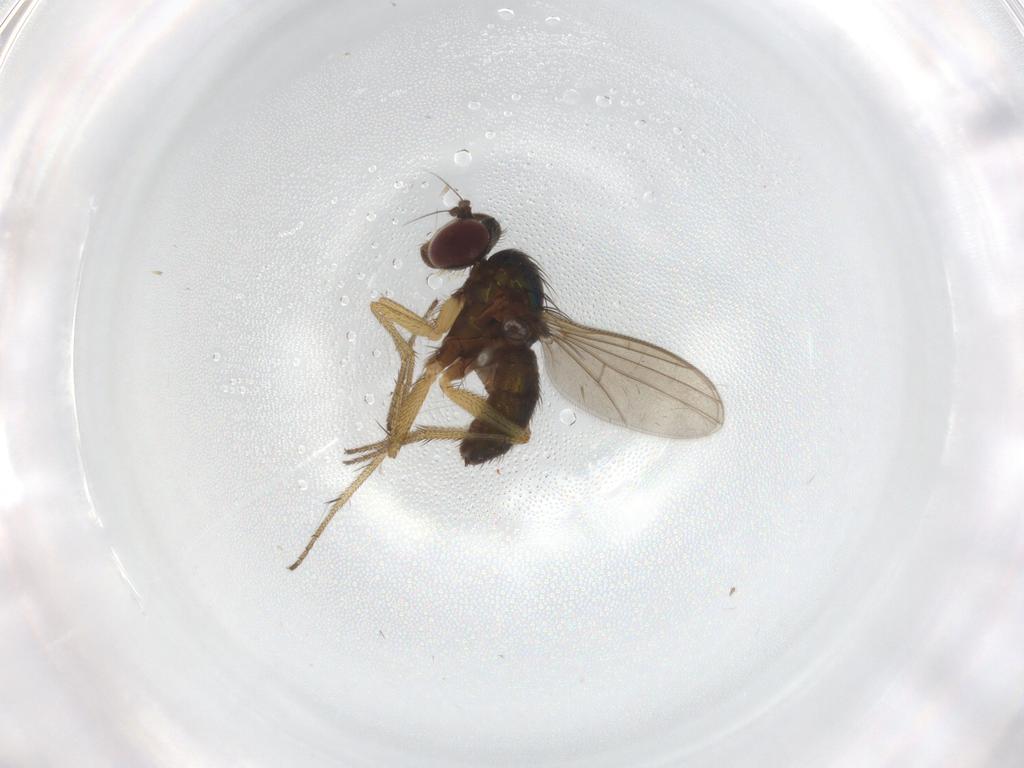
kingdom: Animalia
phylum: Arthropoda
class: Insecta
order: Diptera
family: Dolichopodidae
